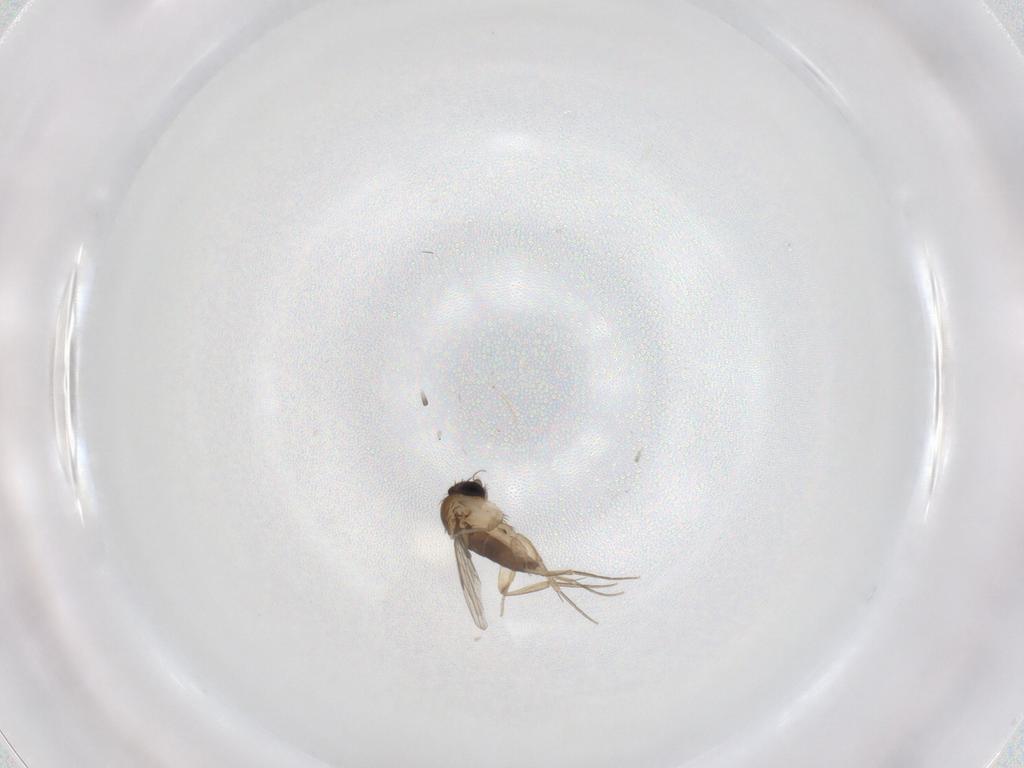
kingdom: Animalia
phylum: Arthropoda
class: Insecta
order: Diptera
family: Phoridae
